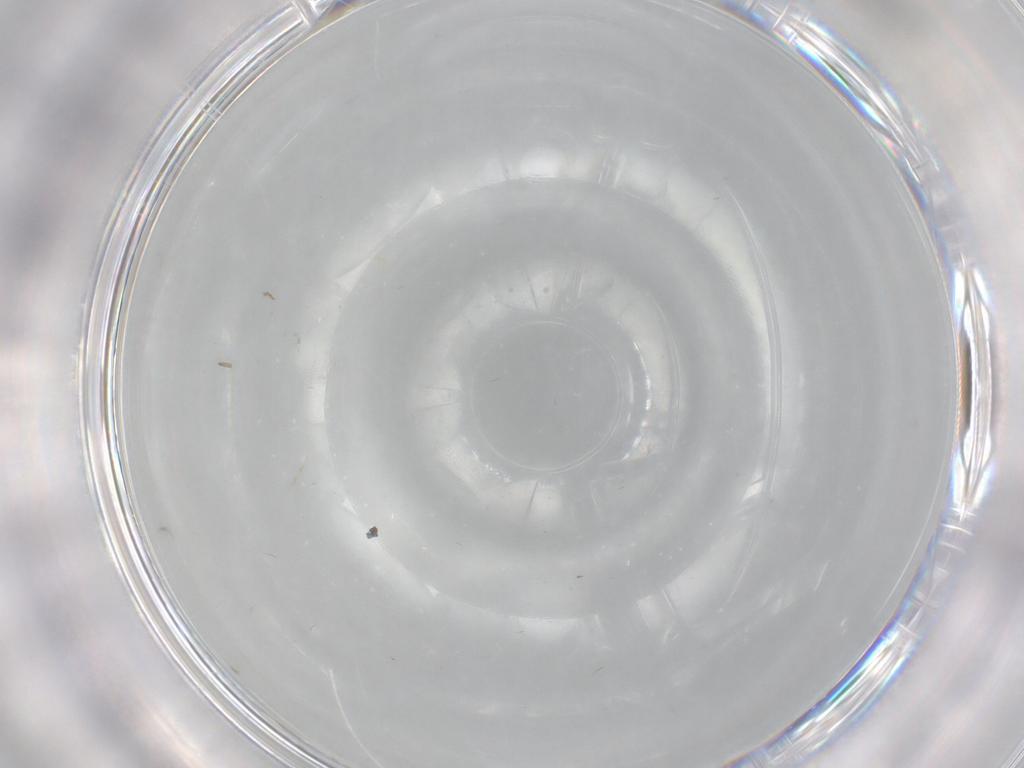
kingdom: Animalia
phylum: Arthropoda
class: Insecta
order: Diptera
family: Chironomidae
